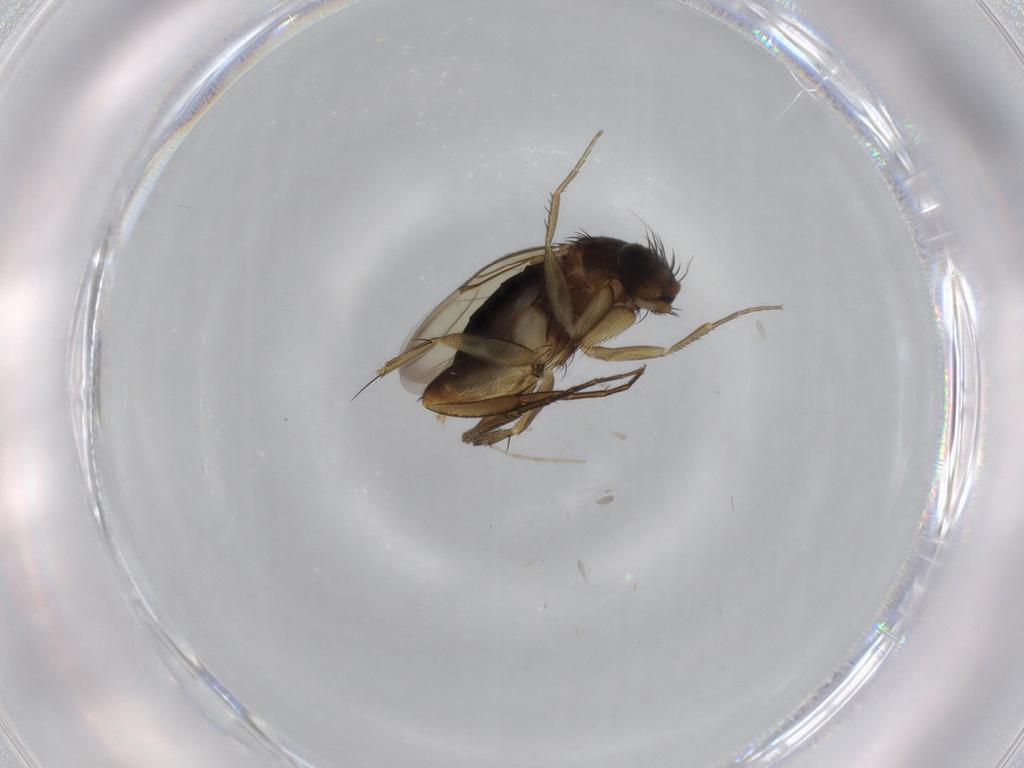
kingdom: Animalia
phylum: Arthropoda
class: Insecta
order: Diptera
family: Phoridae
